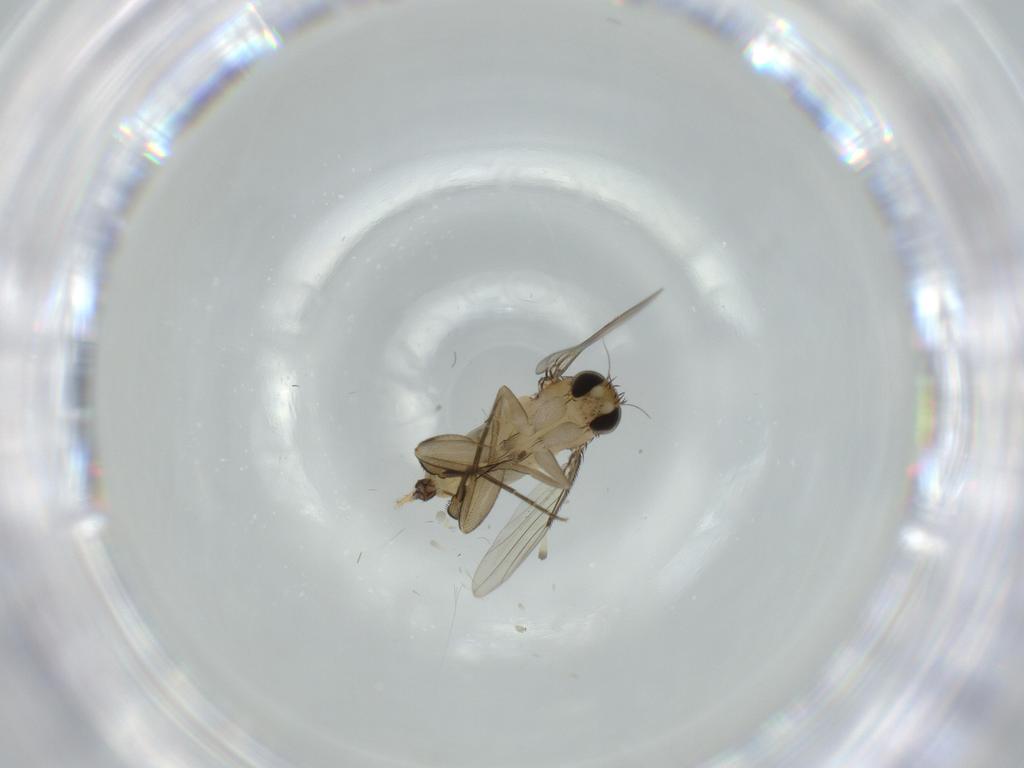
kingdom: Animalia
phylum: Arthropoda
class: Insecta
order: Diptera
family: Phoridae
